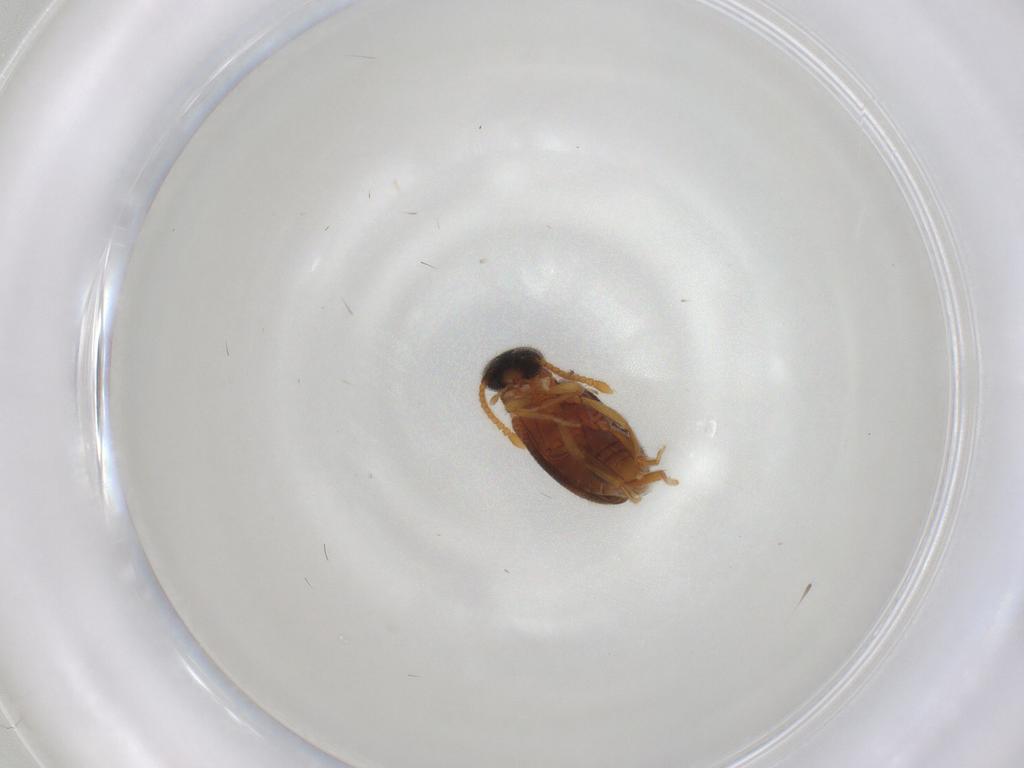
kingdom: Animalia
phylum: Arthropoda
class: Insecta
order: Coleoptera
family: Aderidae
